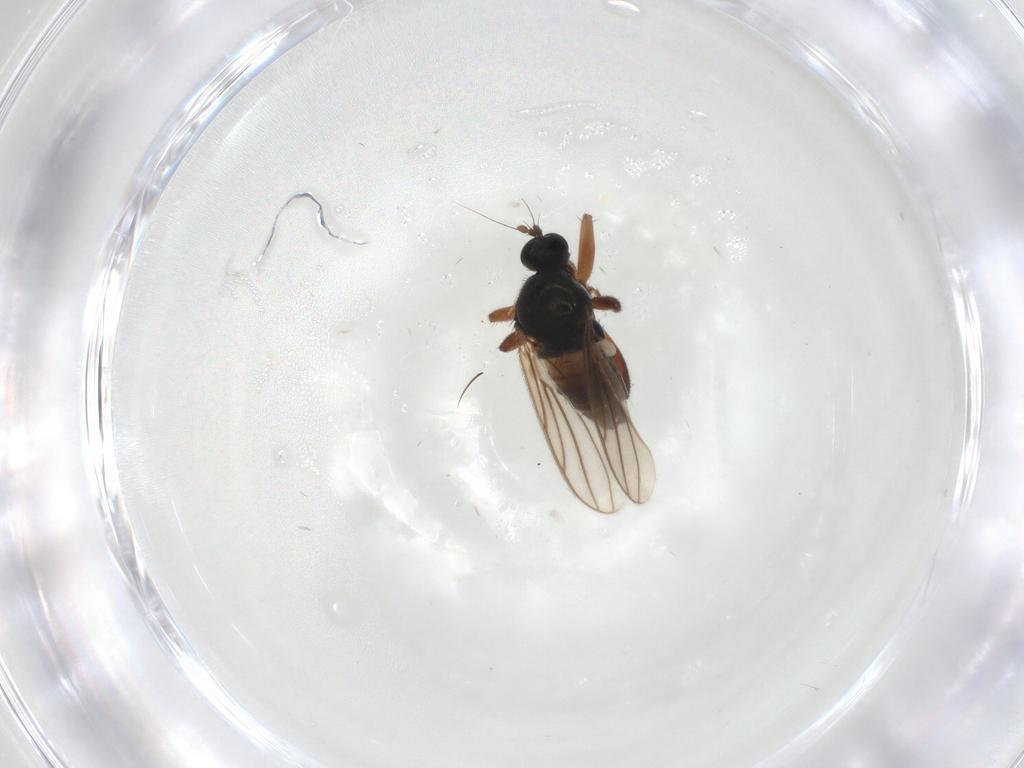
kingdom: Animalia
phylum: Arthropoda
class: Insecta
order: Diptera
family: Hybotidae
